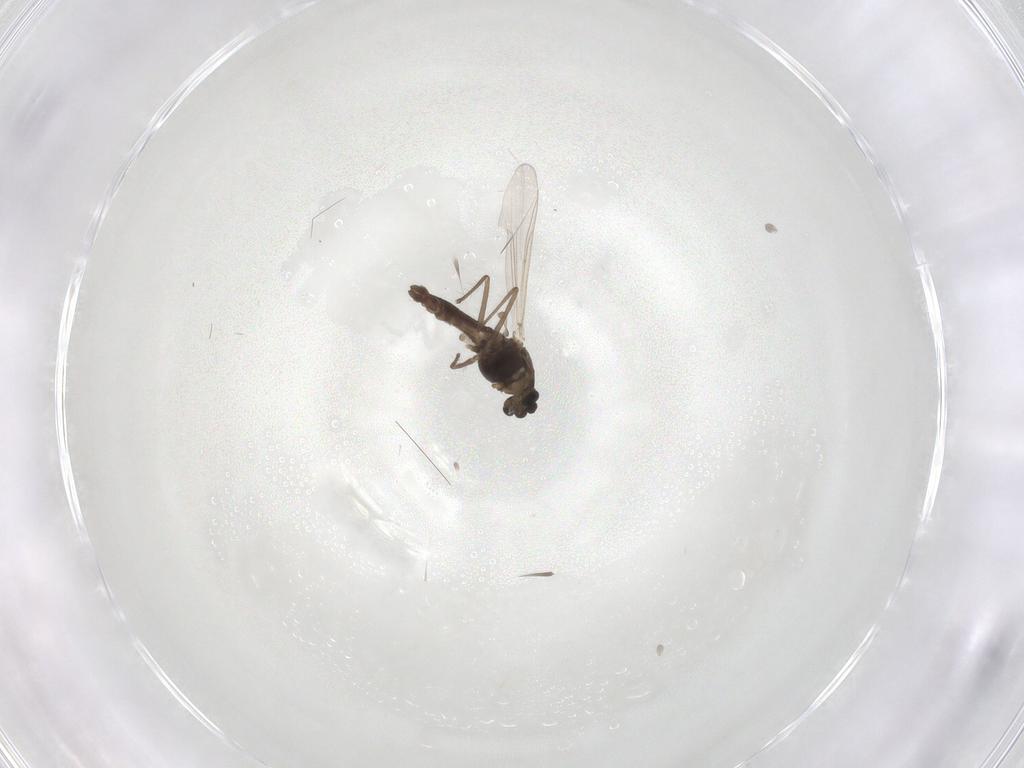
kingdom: Animalia
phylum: Arthropoda
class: Insecta
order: Diptera
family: Chironomidae
